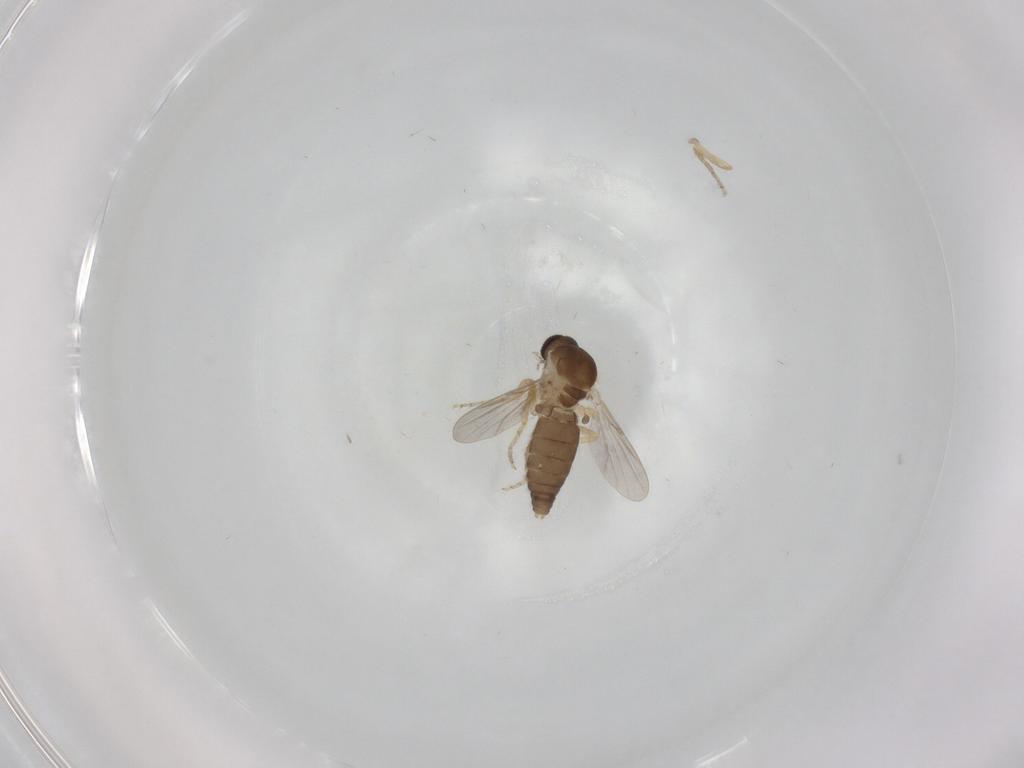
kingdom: Animalia
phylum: Arthropoda
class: Insecta
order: Diptera
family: Ceratopogonidae
